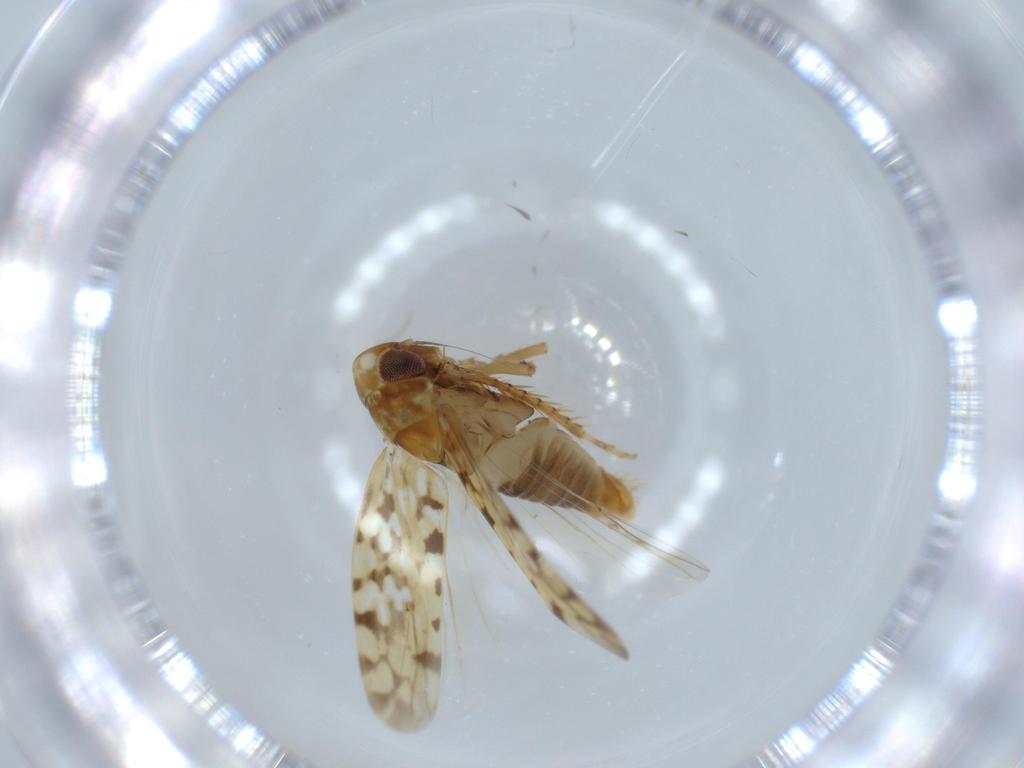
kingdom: Animalia
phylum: Arthropoda
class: Insecta
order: Hemiptera
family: Cicadellidae
